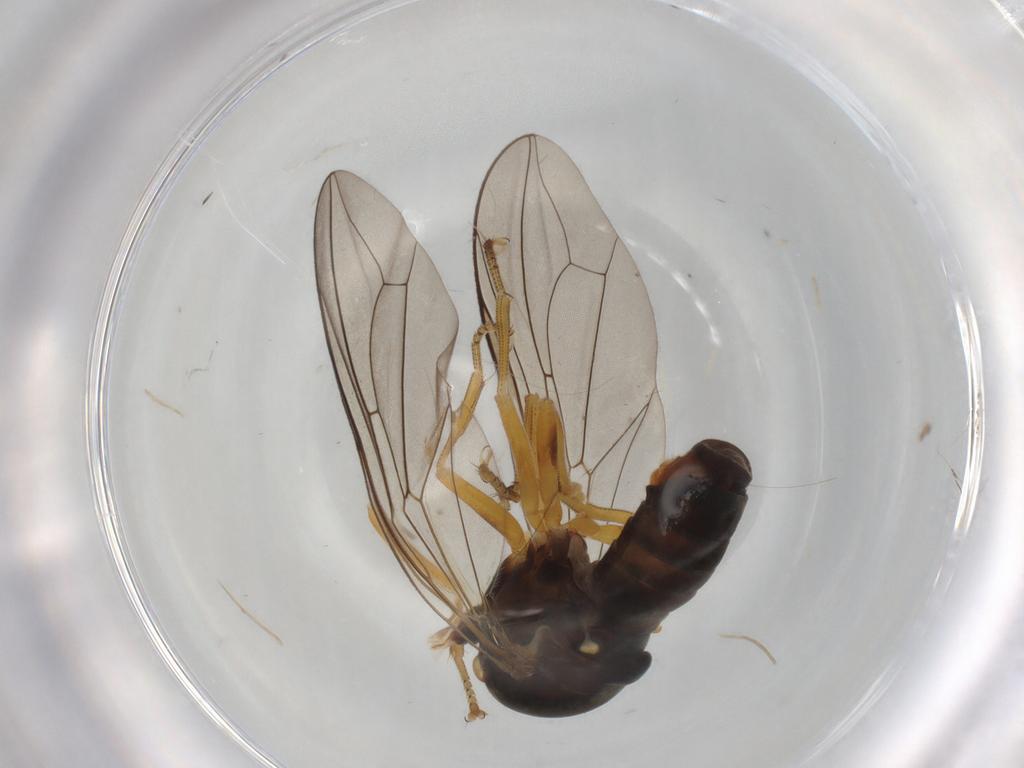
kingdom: Animalia
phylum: Arthropoda
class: Insecta
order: Diptera
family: Pipunculidae
